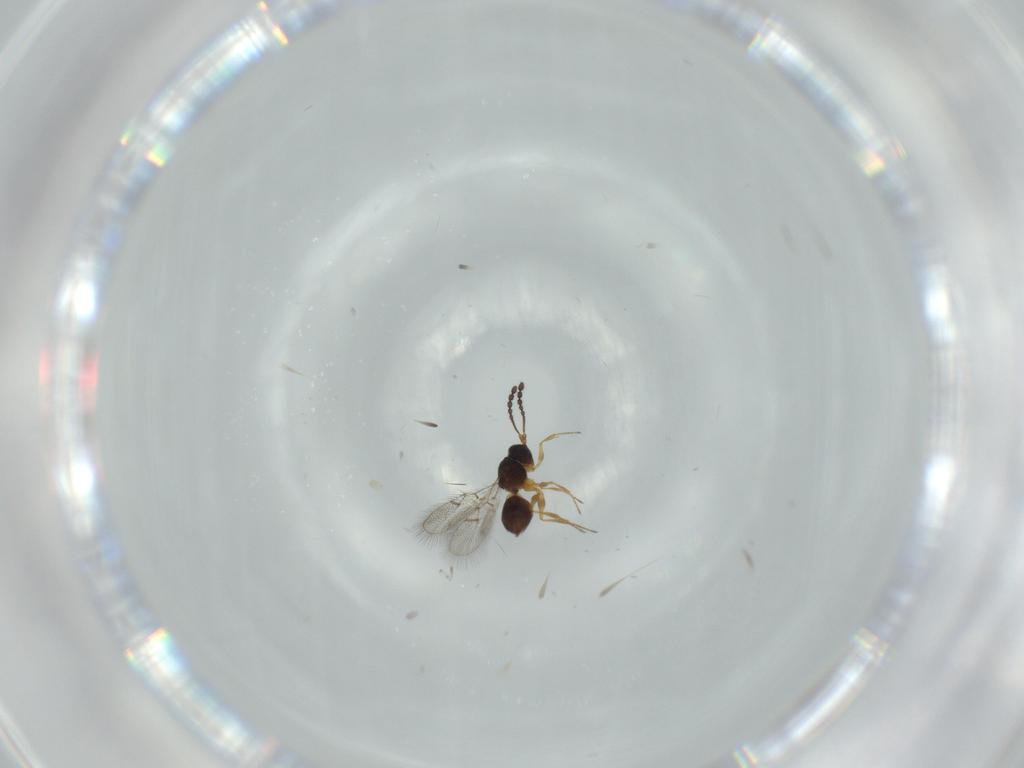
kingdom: Animalia
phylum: Arthropoda
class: Insecta
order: Hymenoptera
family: Figitidae
